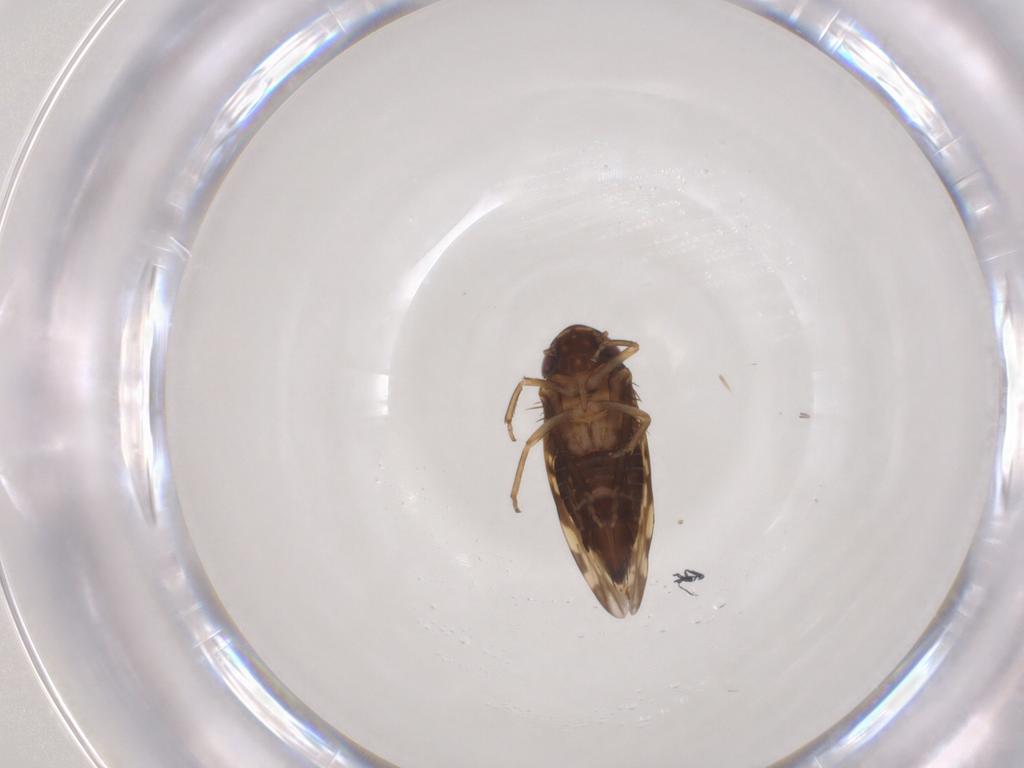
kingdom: Animalia
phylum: Arthropoda
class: Insecta
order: Hemiptera
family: Cicadellidae
